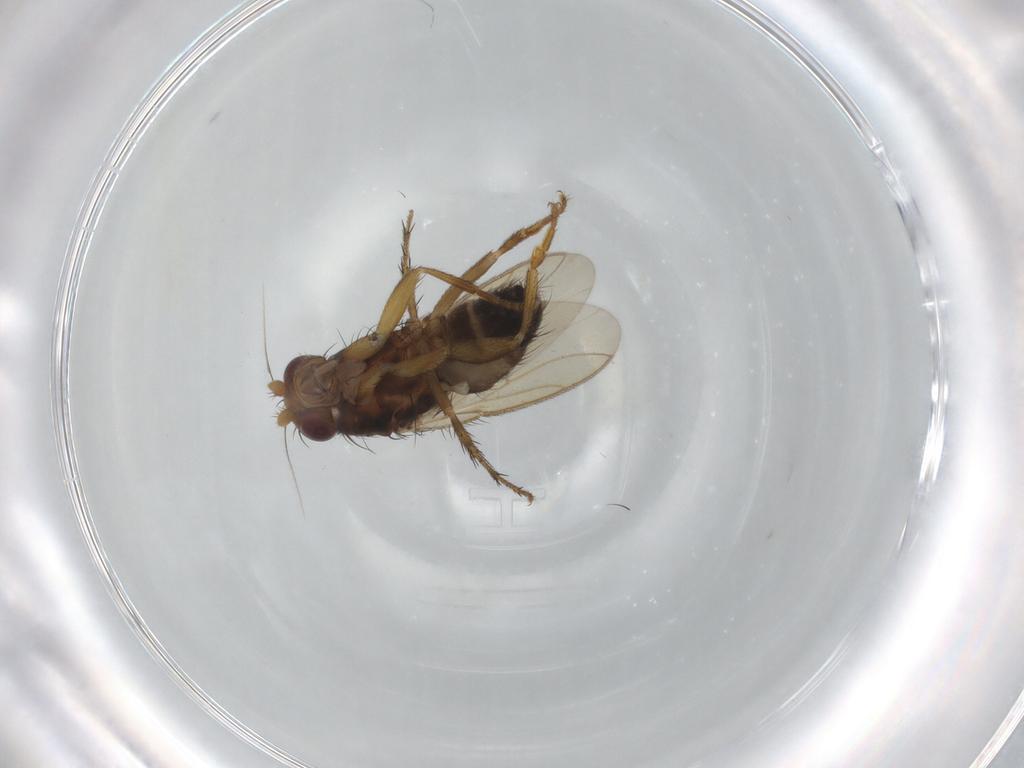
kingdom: Animalia
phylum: Arthropoda
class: Insecta
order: Diptera
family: Sphaeroceridae
